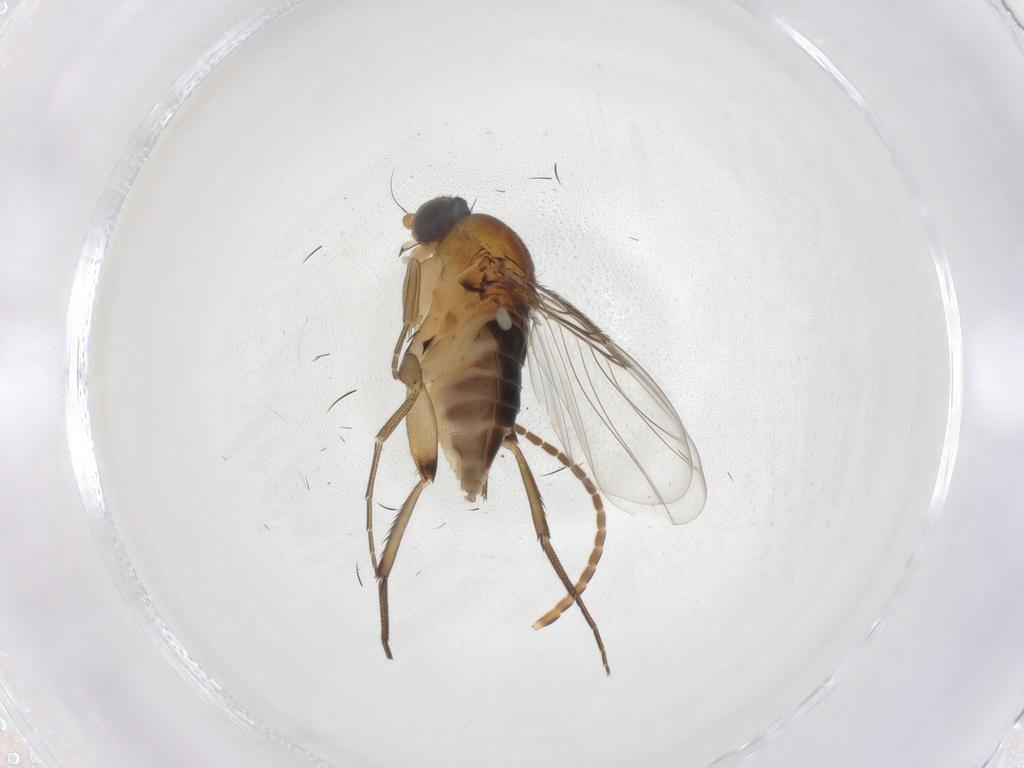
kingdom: Animalia
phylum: Arthropoda
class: Insecta
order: Diptera
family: Phoridae
